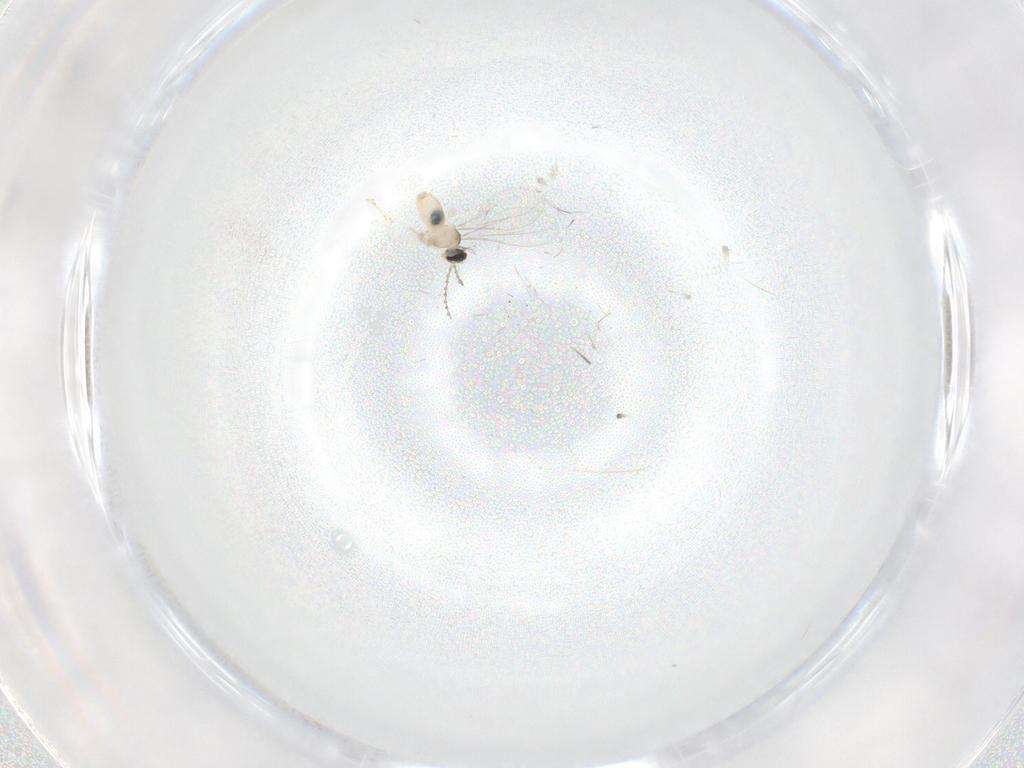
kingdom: Animalia
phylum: Arthropoda
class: Insecta
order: Diptera
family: Cecidomyiidae
